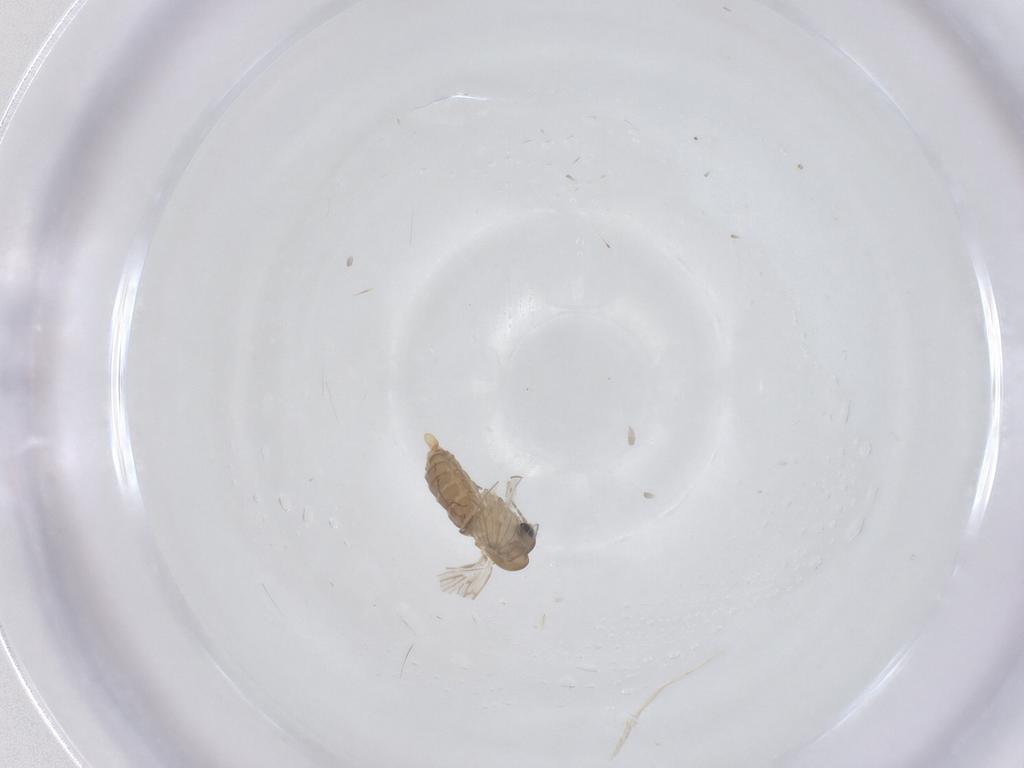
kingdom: Animalia
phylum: Arthropoda
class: Insecta
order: Diptera
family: Psychodidae
